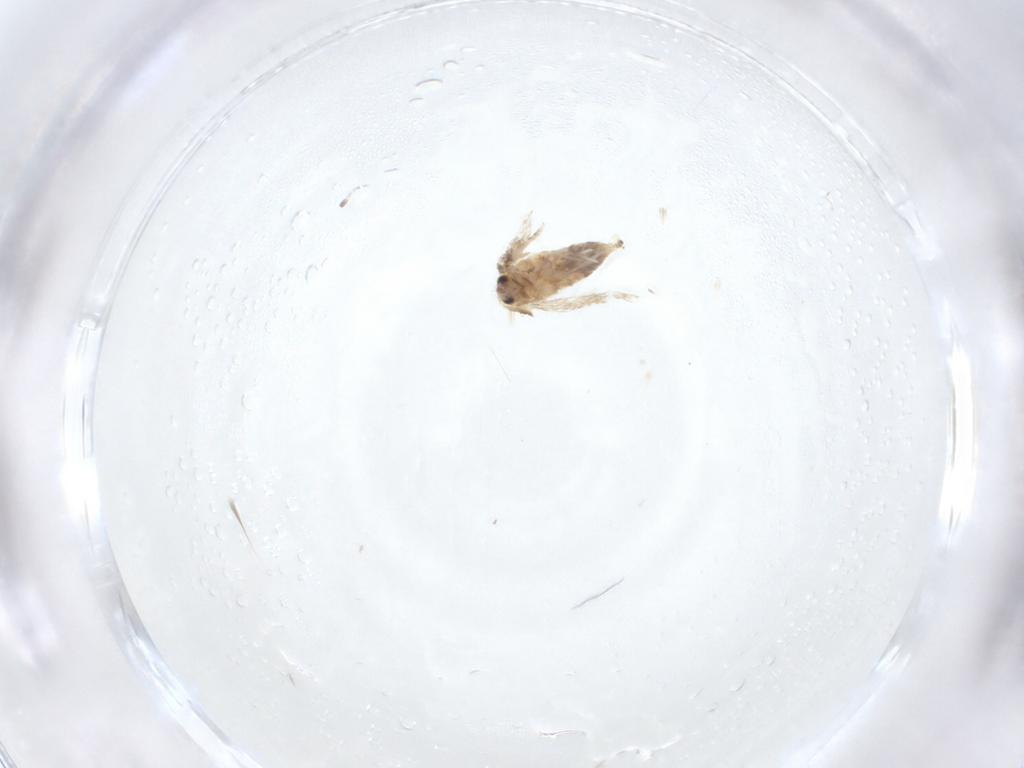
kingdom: Animalia
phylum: Arthropoda
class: Insecta
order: Lepidoptera
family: Nepticulidae
